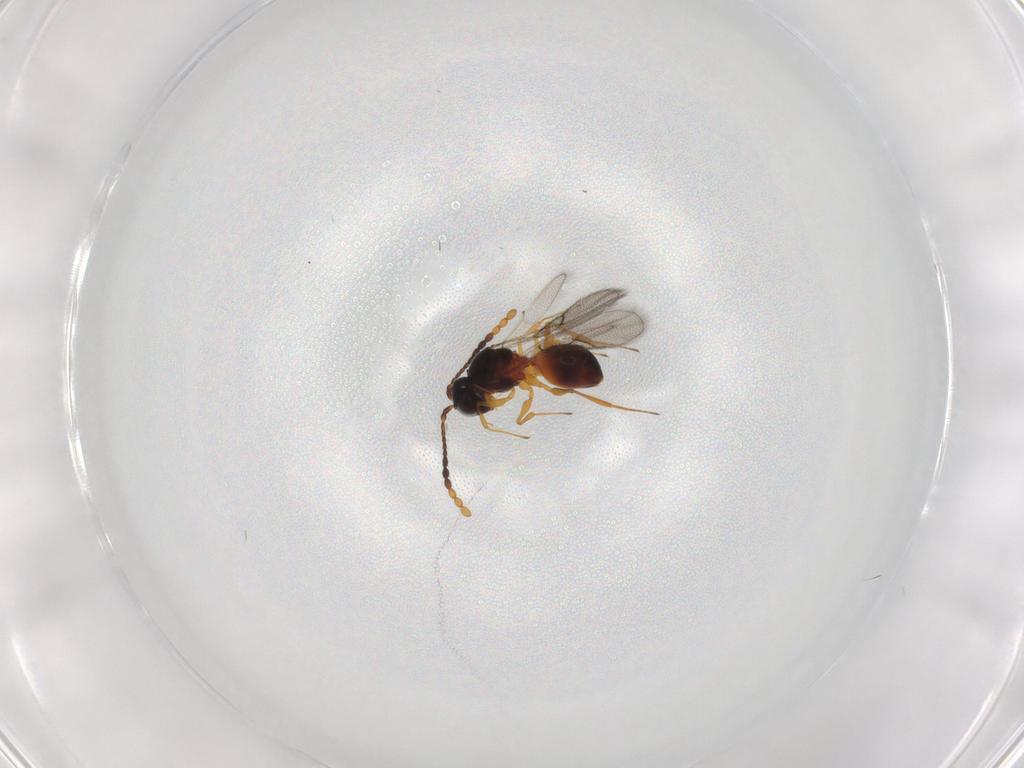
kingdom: Animalia
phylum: Arthropoda
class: Insecta
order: Hymenoptera
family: Figitidae
